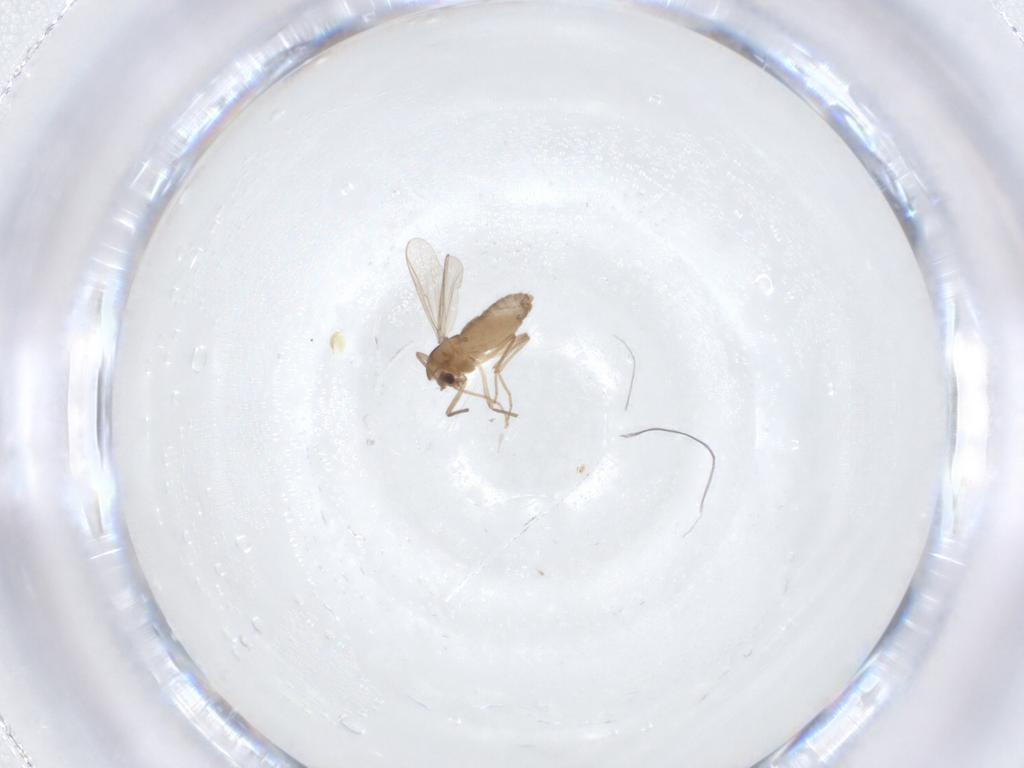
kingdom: Animalia
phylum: Arthropoda
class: Insecta
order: Diptera
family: Chironomidae
